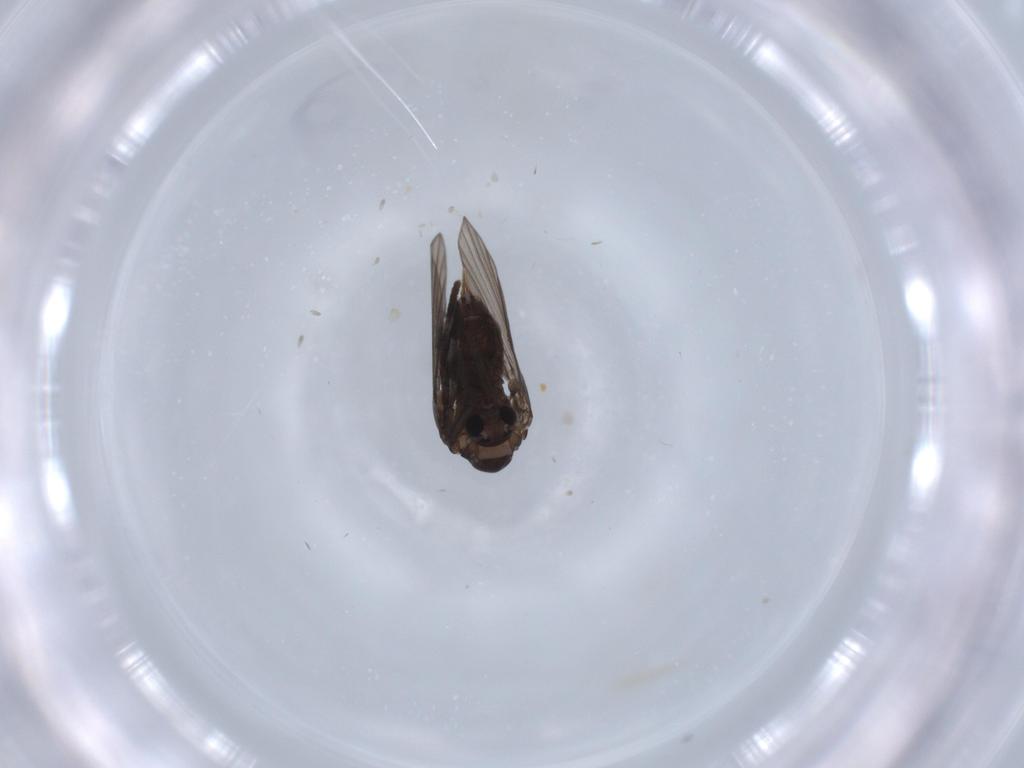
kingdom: Animalia
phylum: Arthropoda
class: Insecta
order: Diptera
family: Psychodidae
